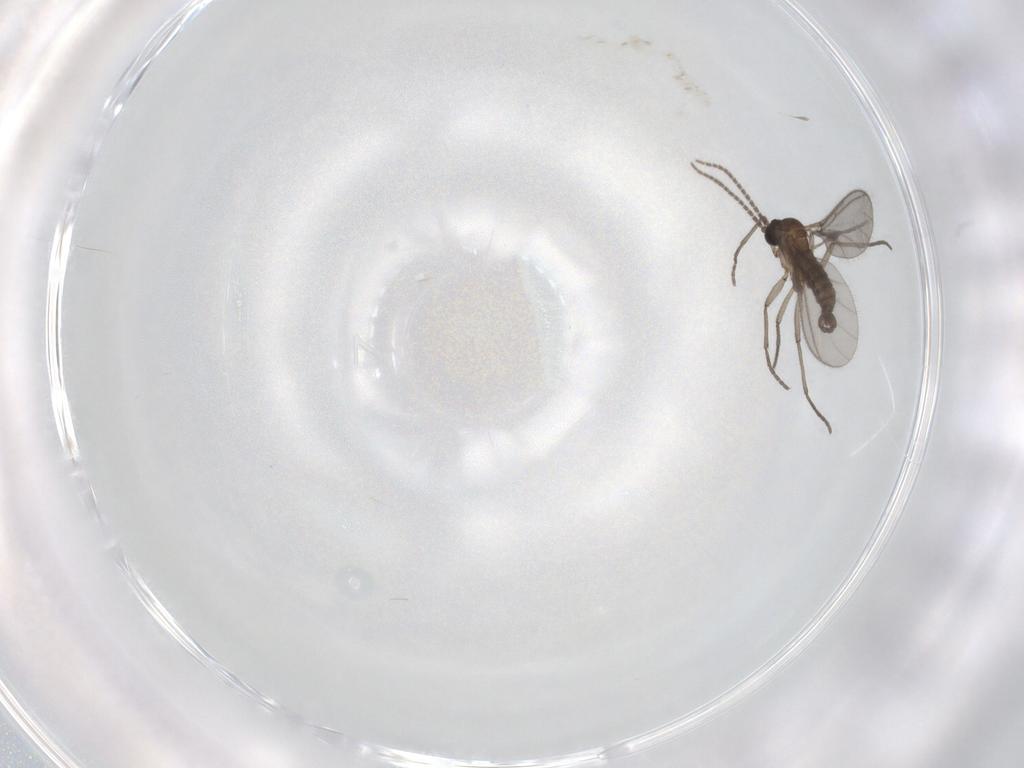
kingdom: Animalia
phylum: Arthropoda
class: Insecta
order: Diptera
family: Sciaridae
